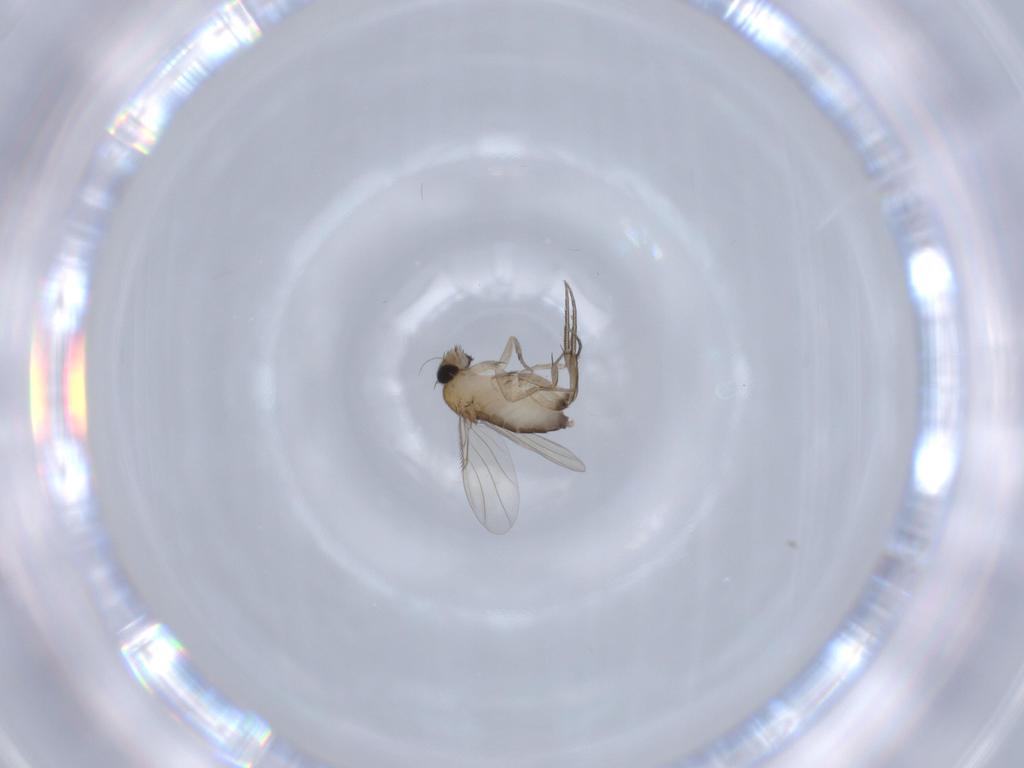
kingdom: Animalia
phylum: Arthropoda
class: Insecta
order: Diptera
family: Phoridae
